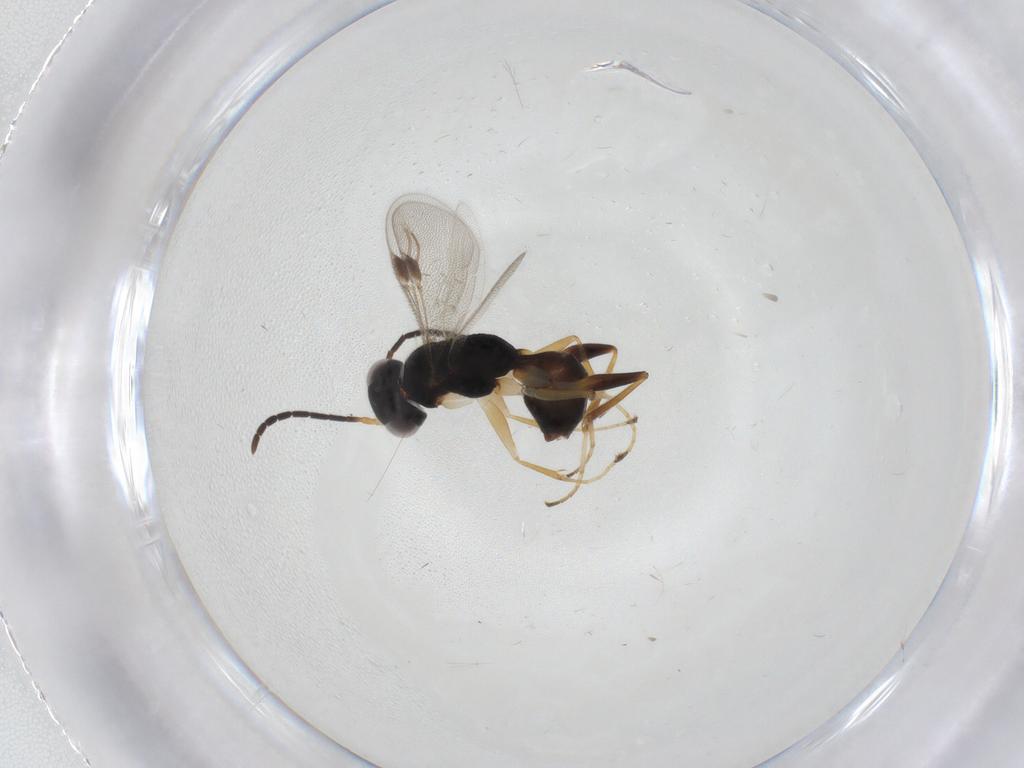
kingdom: Animalia
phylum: Arthropoda
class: Insecta
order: Hymenoptera
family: Dryinidae
